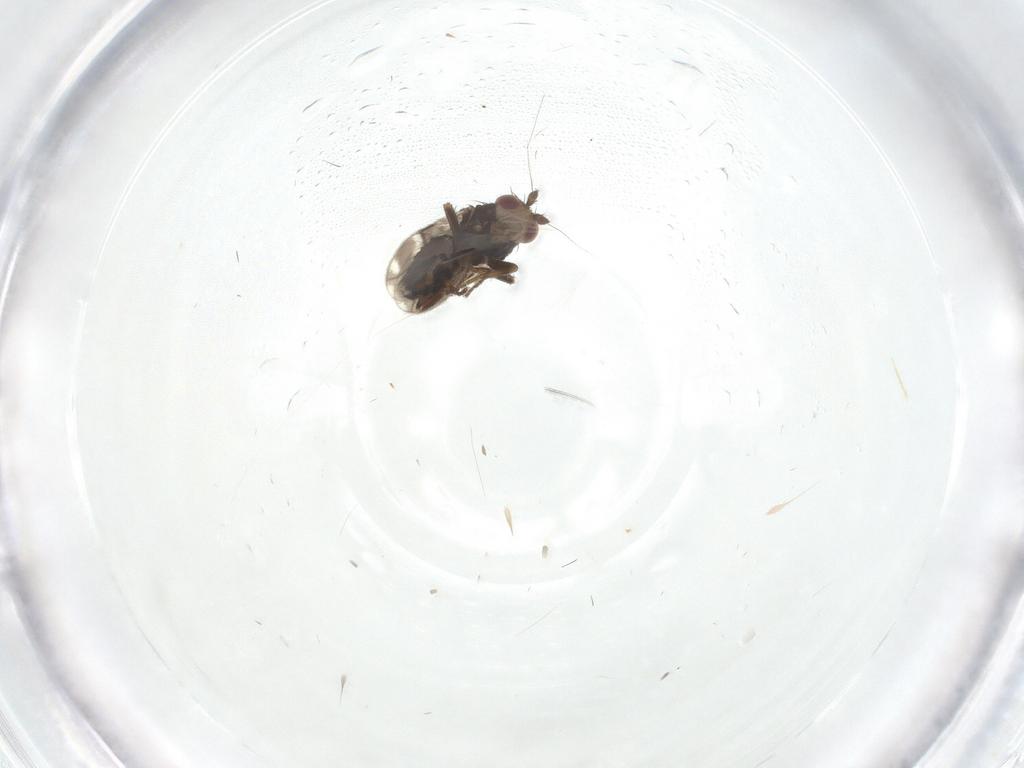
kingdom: Animalia
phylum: Arthropoda
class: Insecta
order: Diptera
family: Sphaeroceridae
